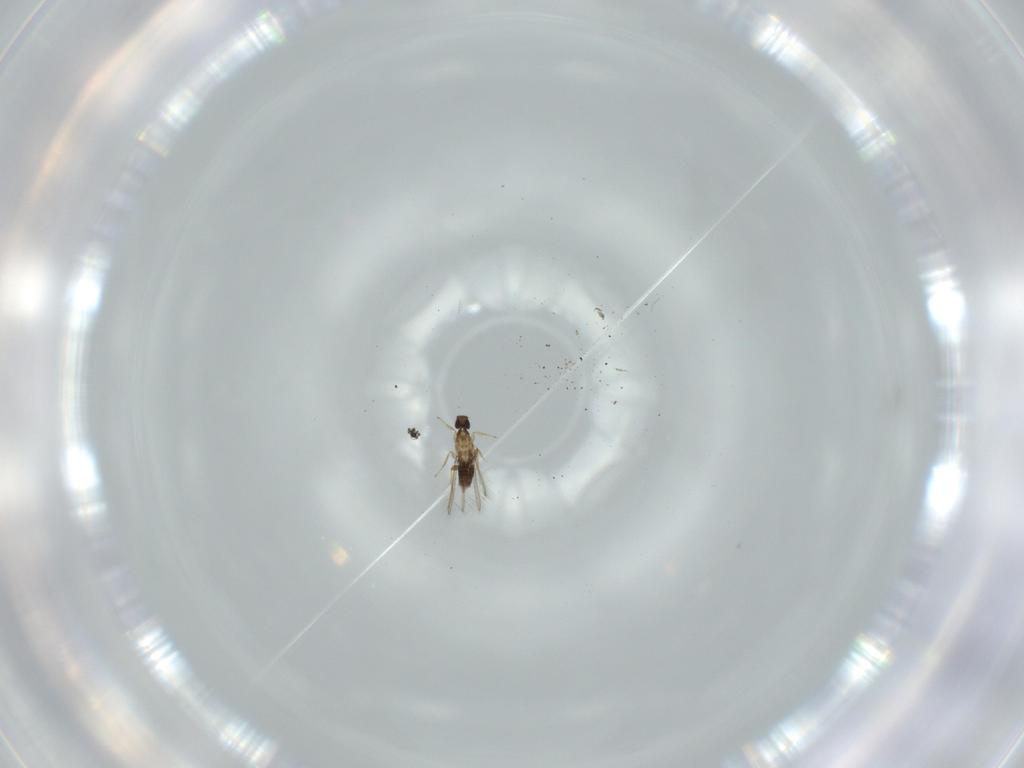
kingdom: Animalia
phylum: Arthropoda
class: Insecta
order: Hymenoptera
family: Mymaridae
